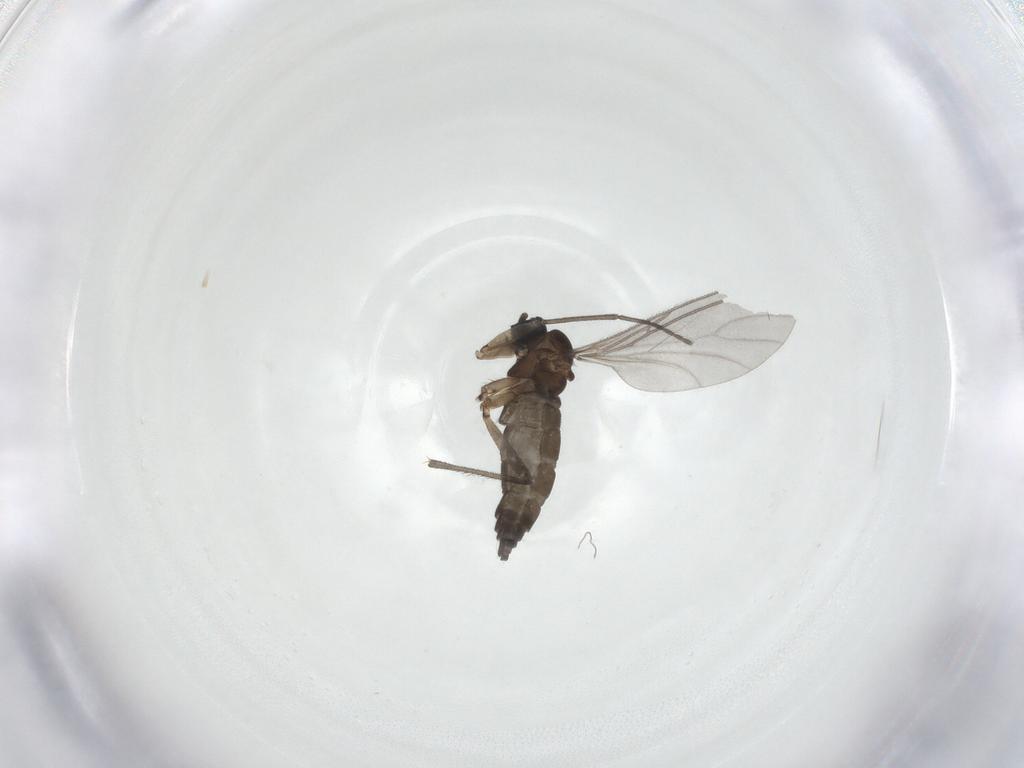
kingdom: Animalia
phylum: Arthropoda
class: Insecta
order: Diptera
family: Sciaridae
